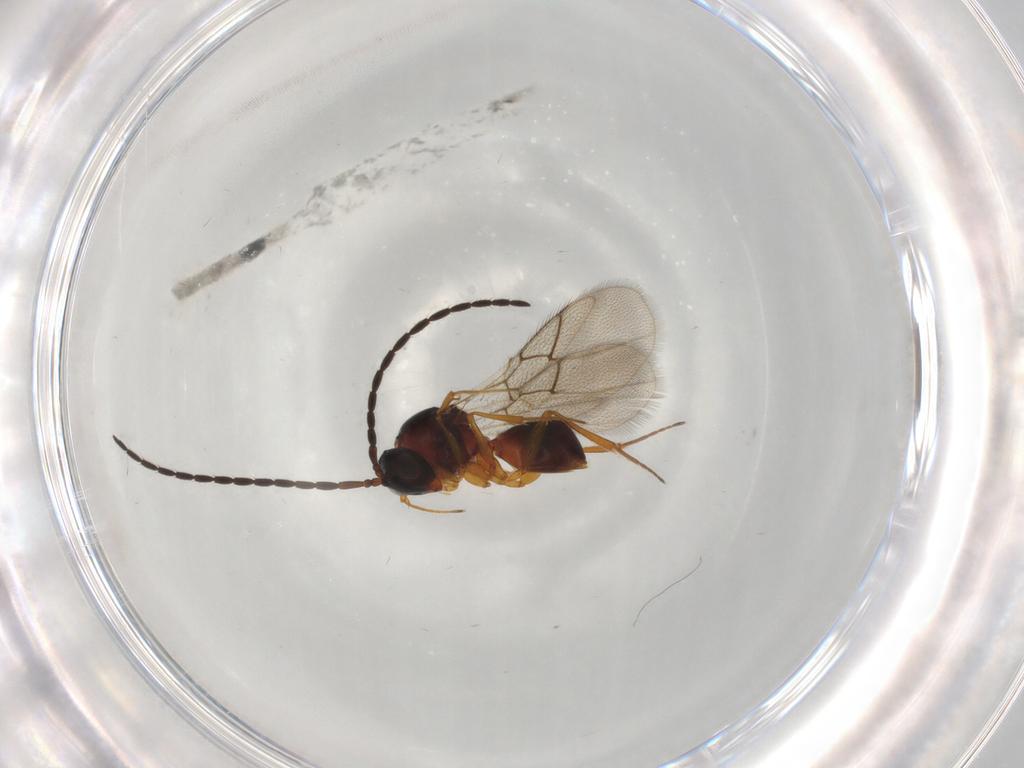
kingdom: Animalia
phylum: Arthropoda
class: Insecta
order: Hymenoptera
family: Figitidae
